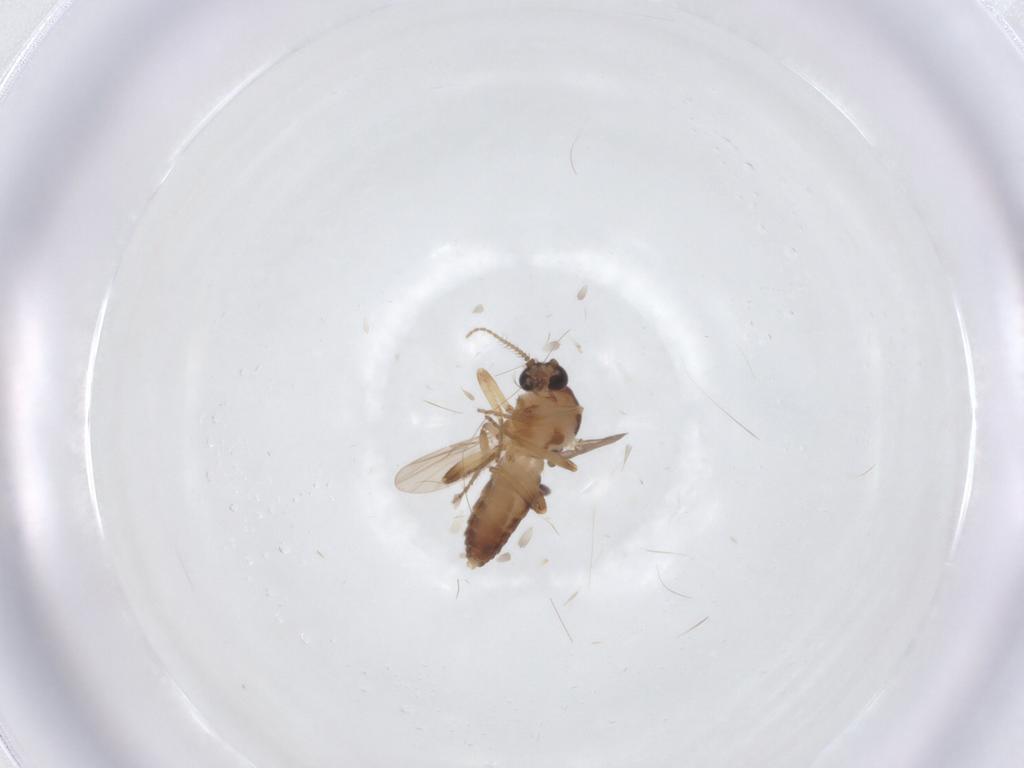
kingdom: Animalia
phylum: Arthropoda
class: Insecta
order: Diptera
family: Ceratopogonidae
